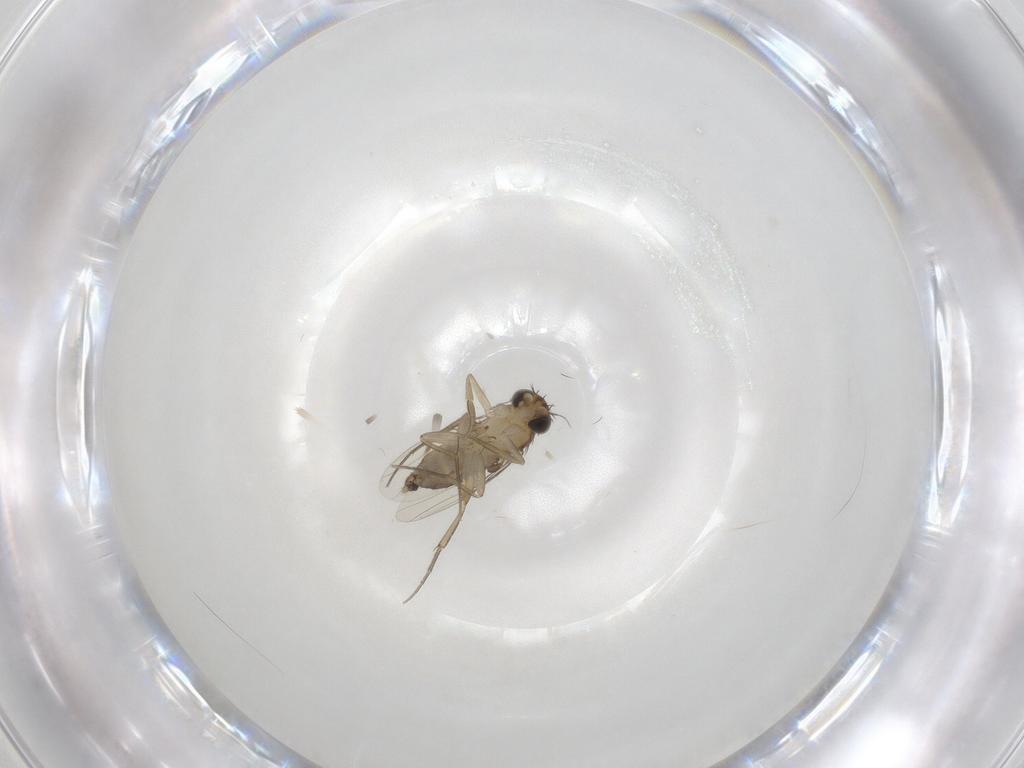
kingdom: Animalia
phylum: Arthropoda
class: Insecta
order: Diptera
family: Phoridae
